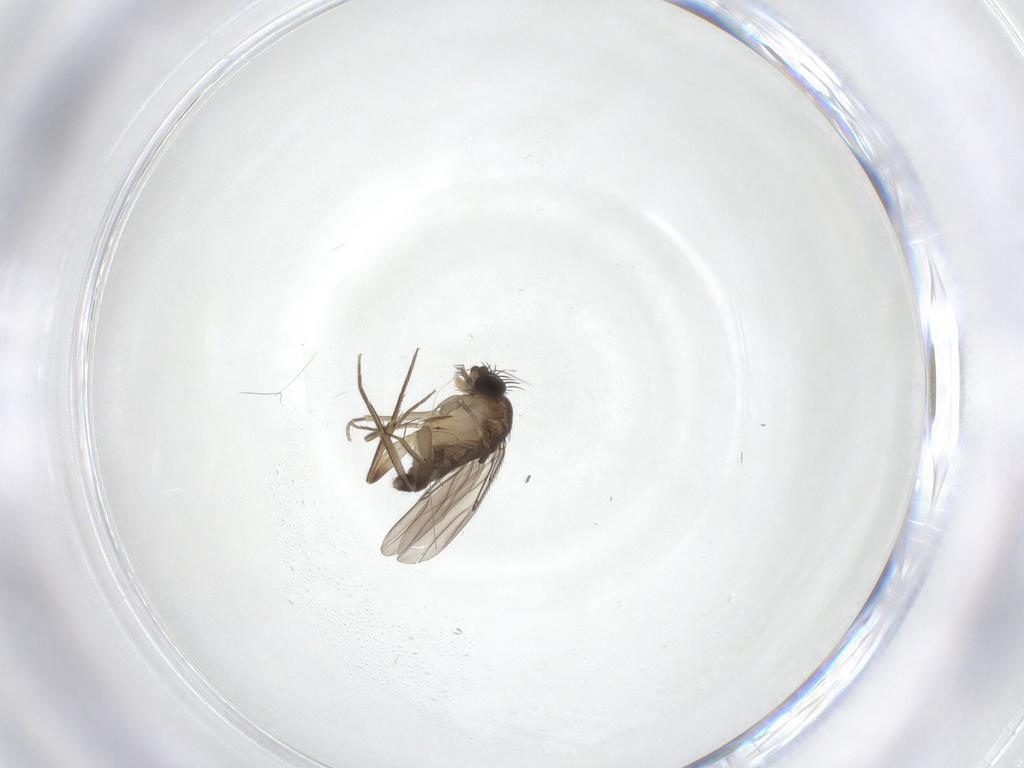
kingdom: Animalia
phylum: Arthropoda
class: Insecta
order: Diptera
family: Phoridae
